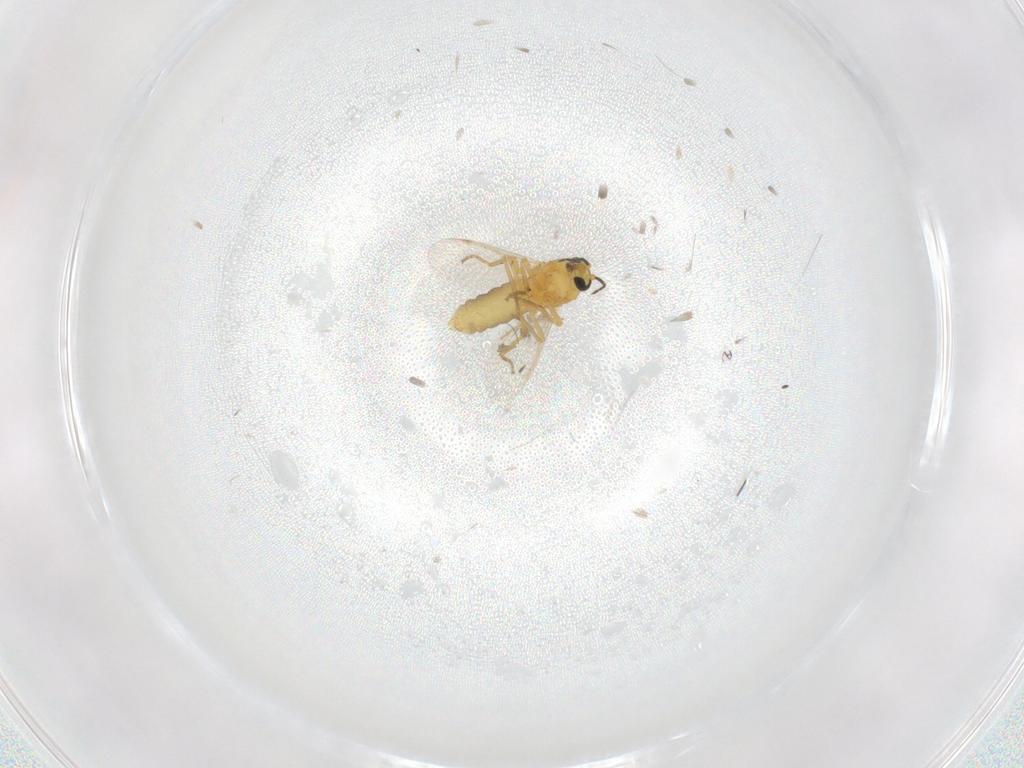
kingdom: Animalia
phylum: Arthropoda
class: Insecta
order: Diptera
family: Ceratopogonidae
